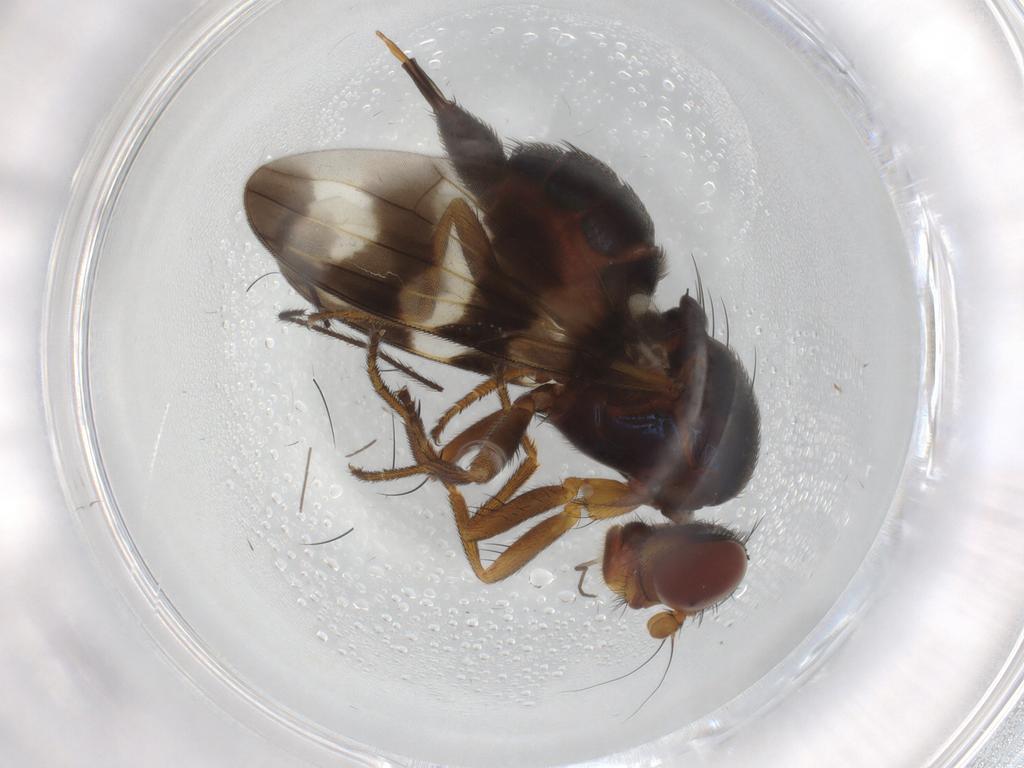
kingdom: Animalia
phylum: Arthropoda
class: Insecta
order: Diptera
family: Ulidiidae
